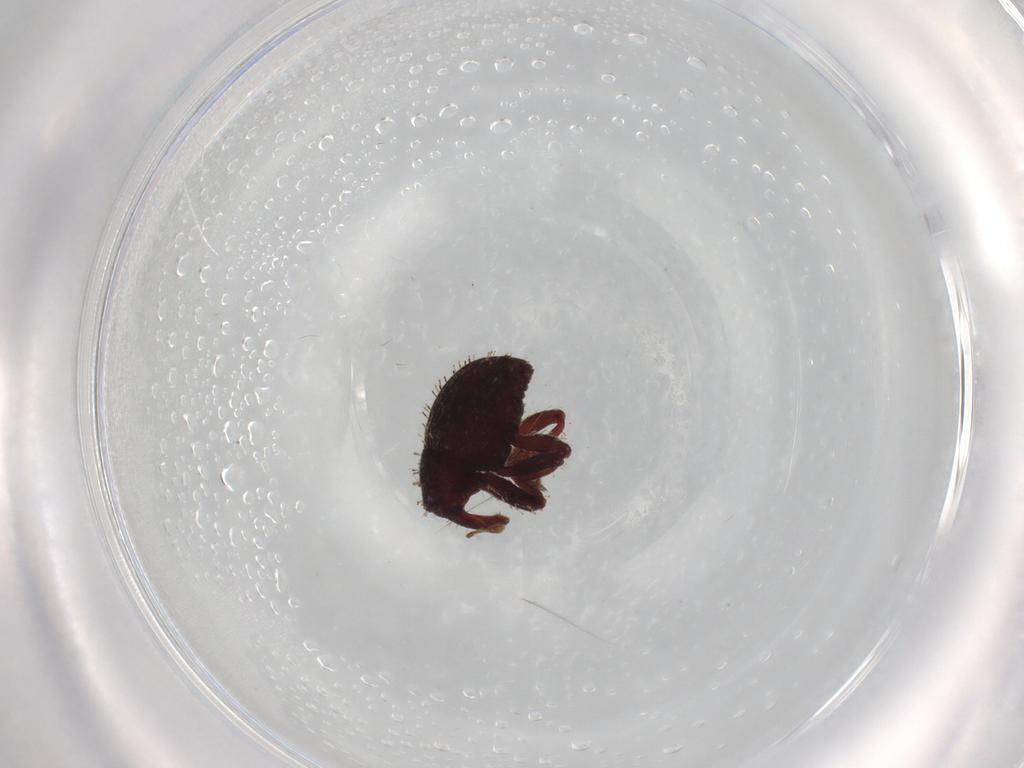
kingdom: Animalia
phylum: Arthropoda
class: Insecta
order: Coleoptera
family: Curculionidae
